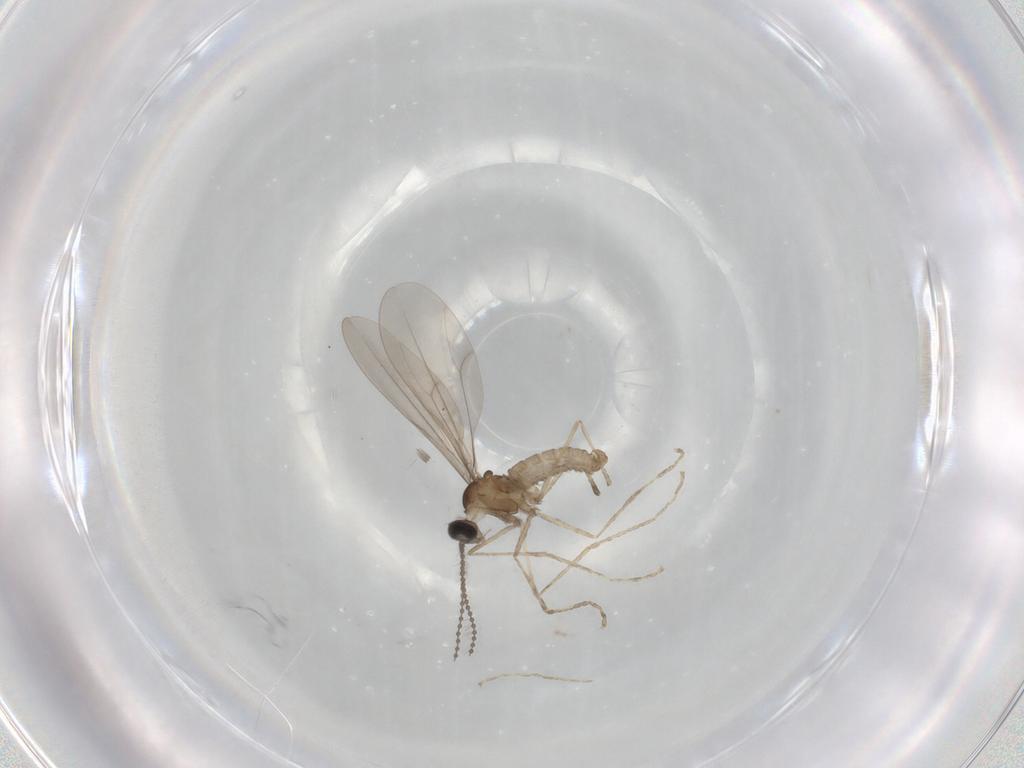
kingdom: Animalia
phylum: Arthropoda
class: Insecta
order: Diptera
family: Cecidomyiidae
